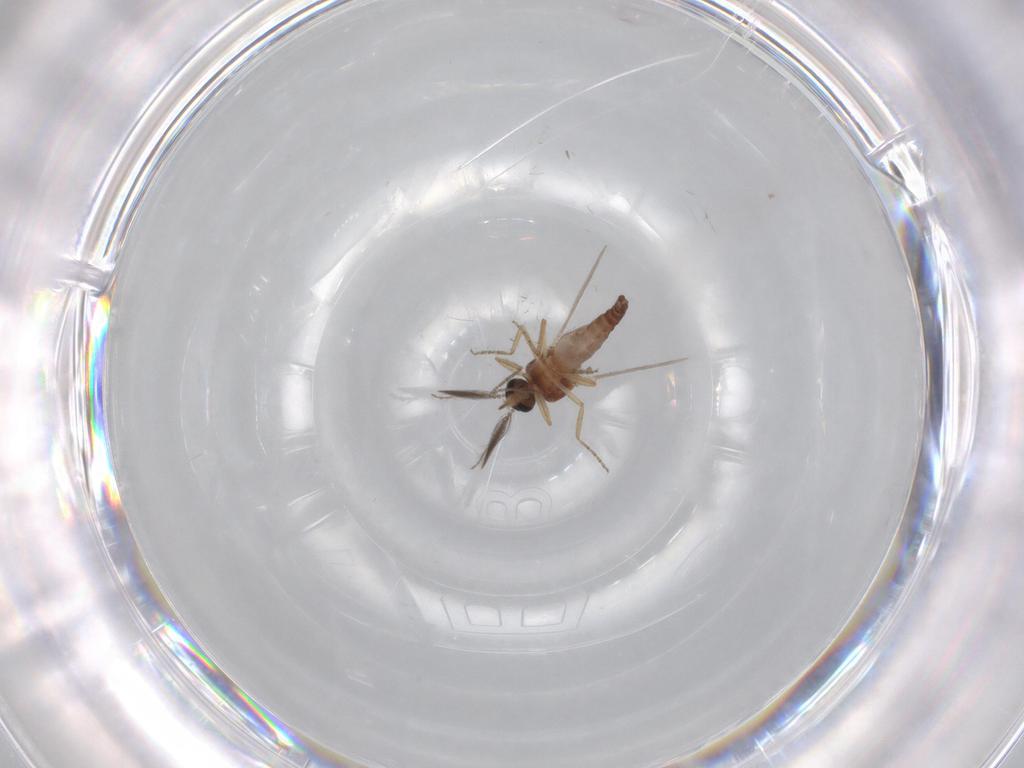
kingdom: Animalia
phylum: Arthropoda
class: Insecta
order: Diptera
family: Ceratopogonidae
